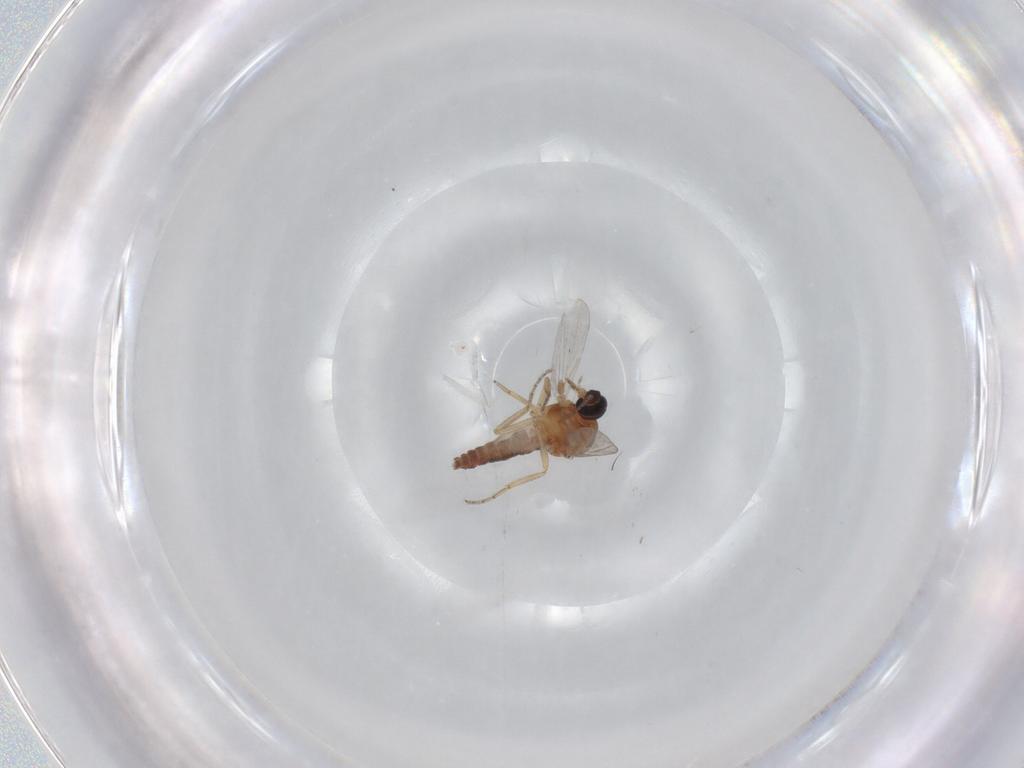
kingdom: Animalia
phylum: Arthropoda
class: Insecta
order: Diptera
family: Ceratopogonidae
